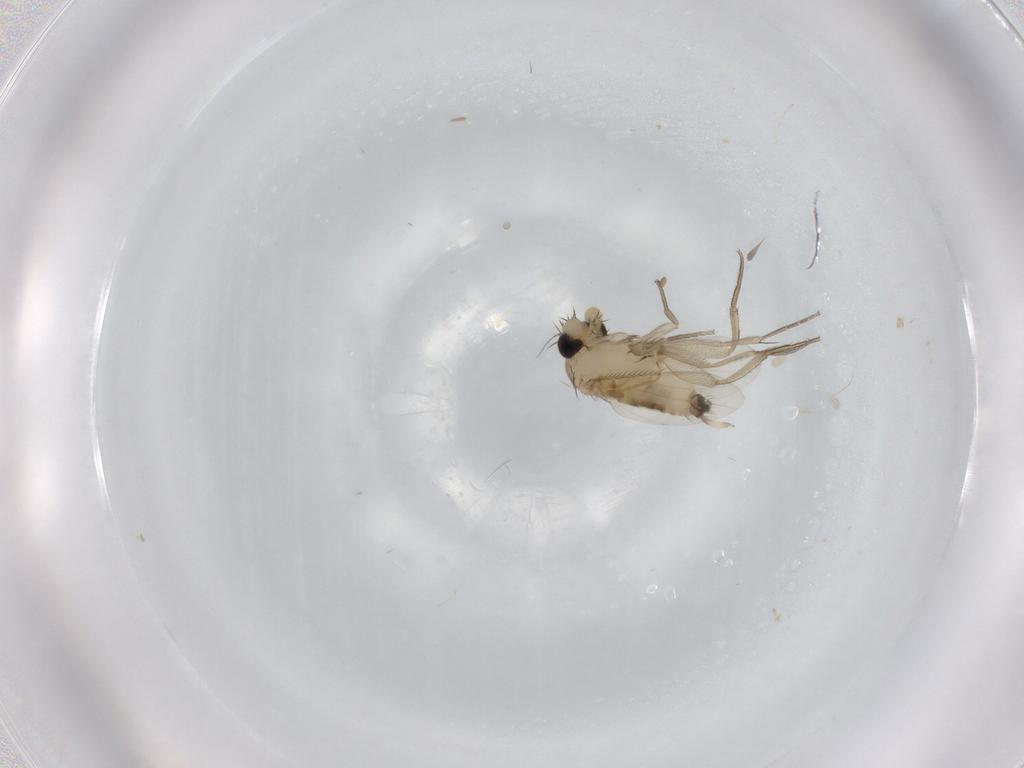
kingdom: Animalia
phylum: Arthropoda
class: Insecta
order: Diptera
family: Phoridae
